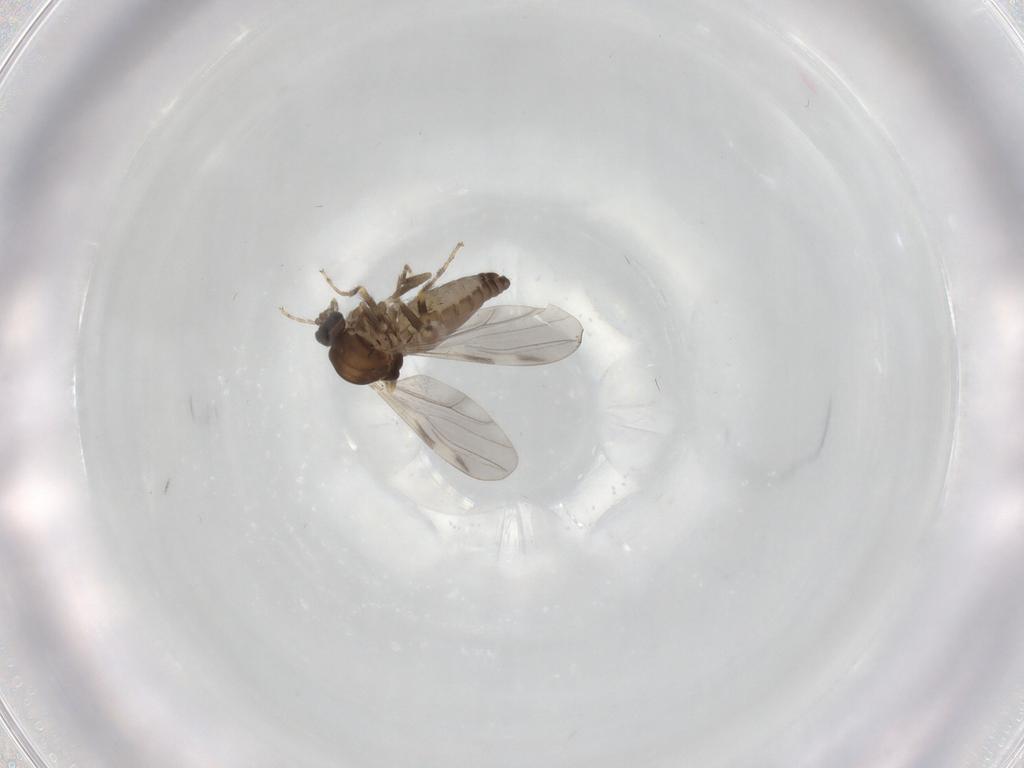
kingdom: Animalia
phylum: Arthropoda
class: Insecta
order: Diptera
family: Ceratopogonidae
